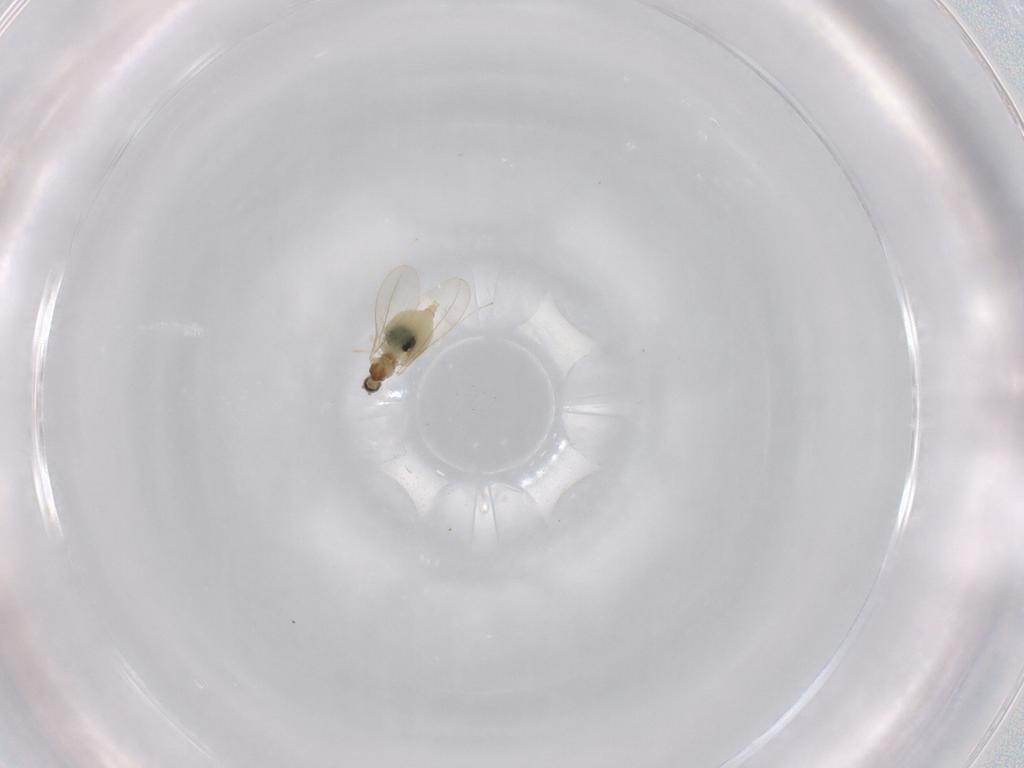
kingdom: Animalia
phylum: Arthropoda
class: Insecta
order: Diptera
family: Cecidomyiidae
